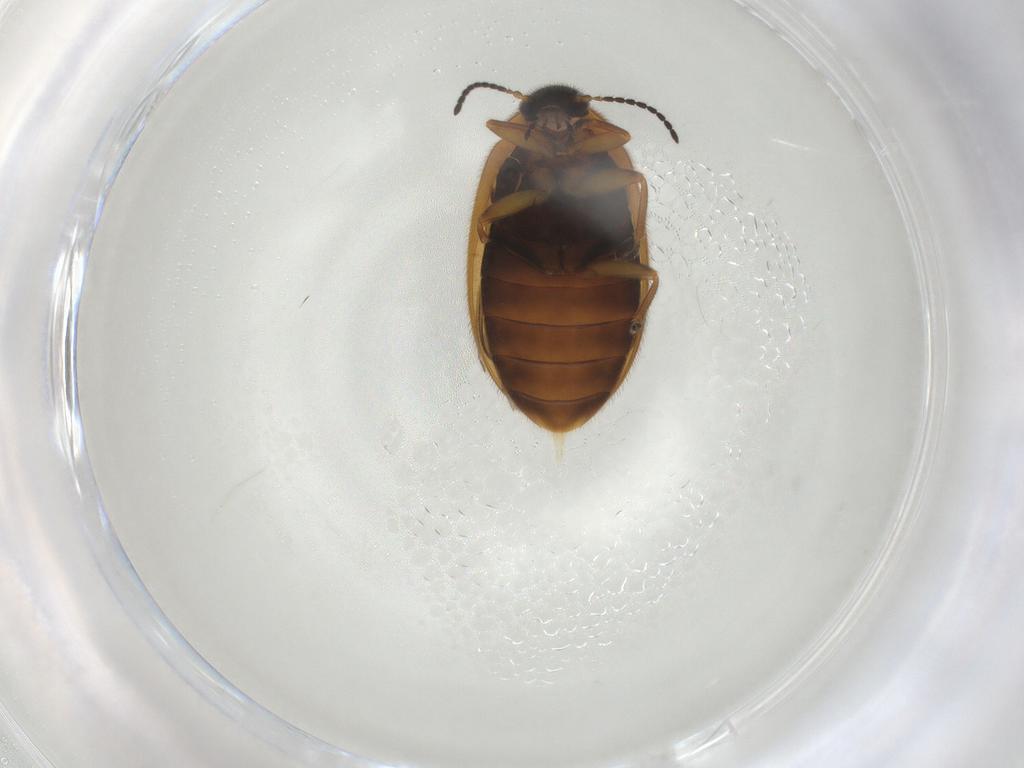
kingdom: Animalia
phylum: Arthropoda
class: Insecta
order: Coleoptera
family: Scirtidae
